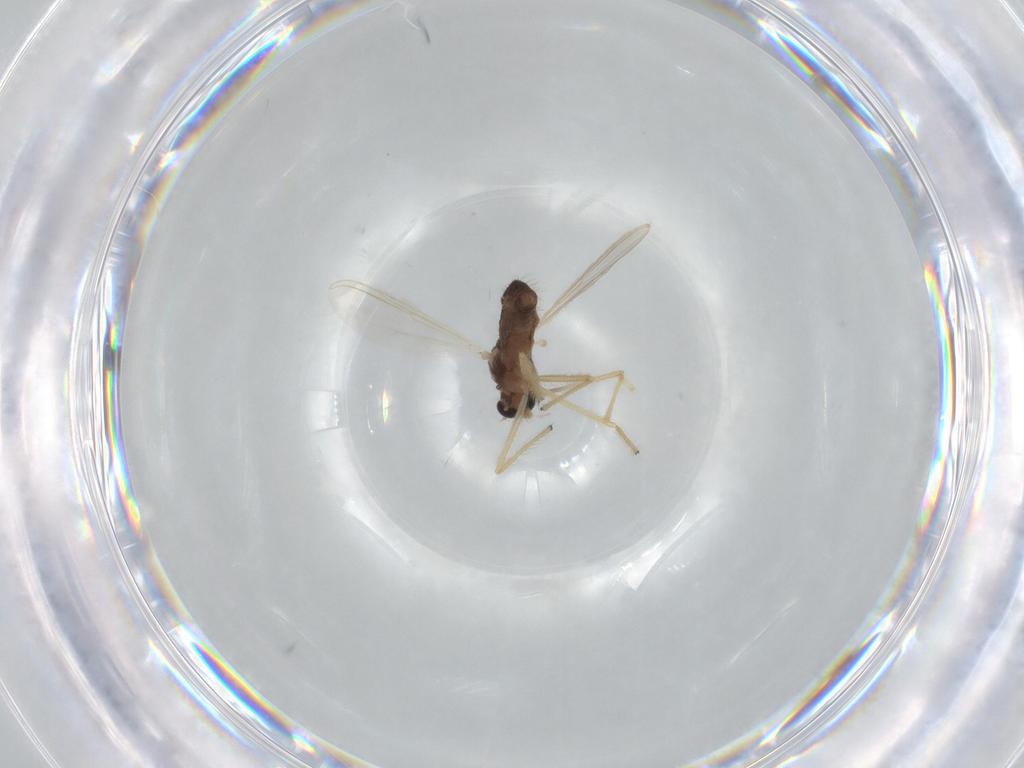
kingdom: Animalia
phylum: Arthropoda
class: Insecta
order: Diptera
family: Chironomidae
